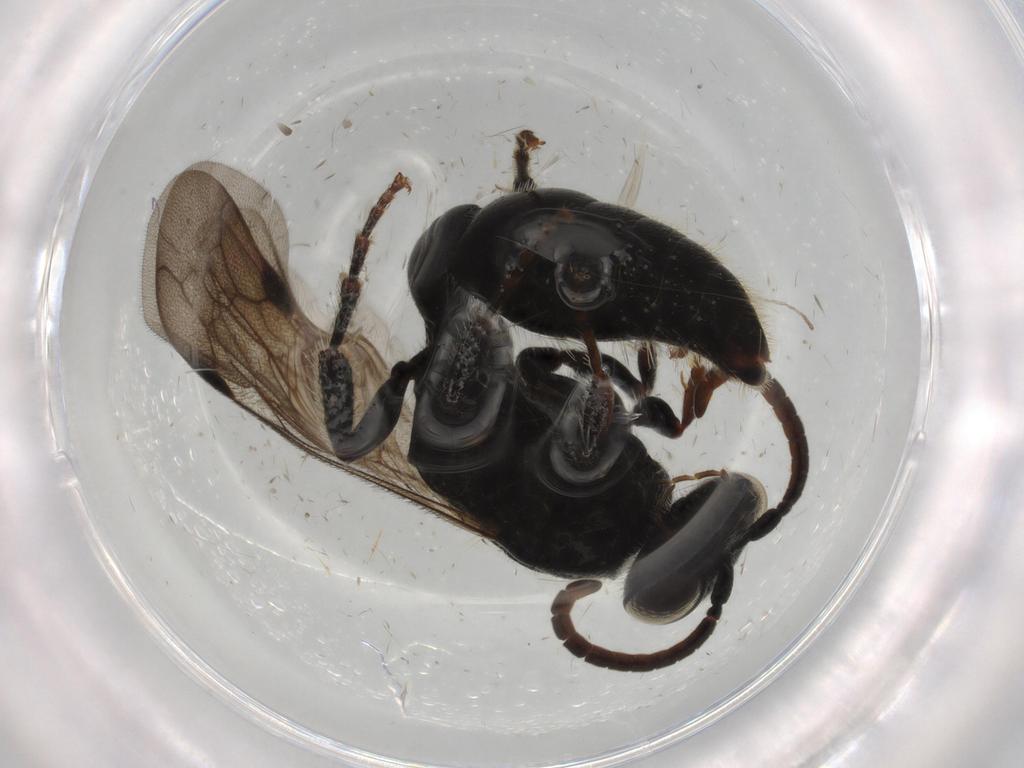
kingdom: Animalia
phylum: Arthropoda
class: Insecta
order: Hymenoptera
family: Tiphiidae
